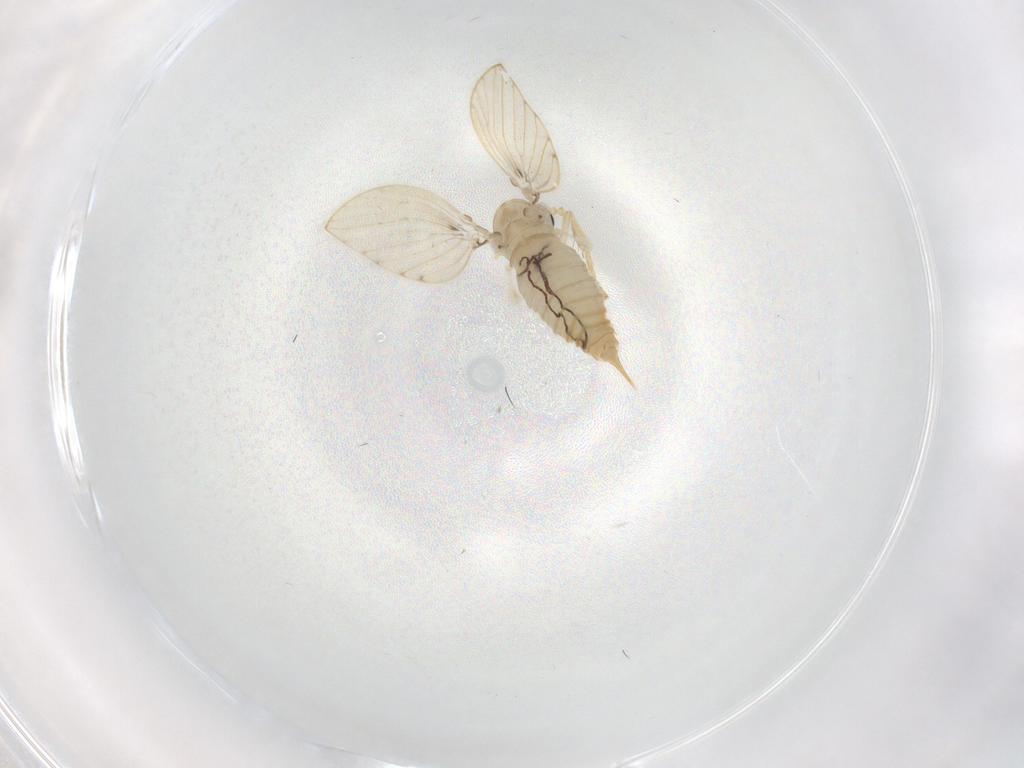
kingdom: Animalia
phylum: Arthropoda
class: Insecta
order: Diptera
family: Psychodidae
